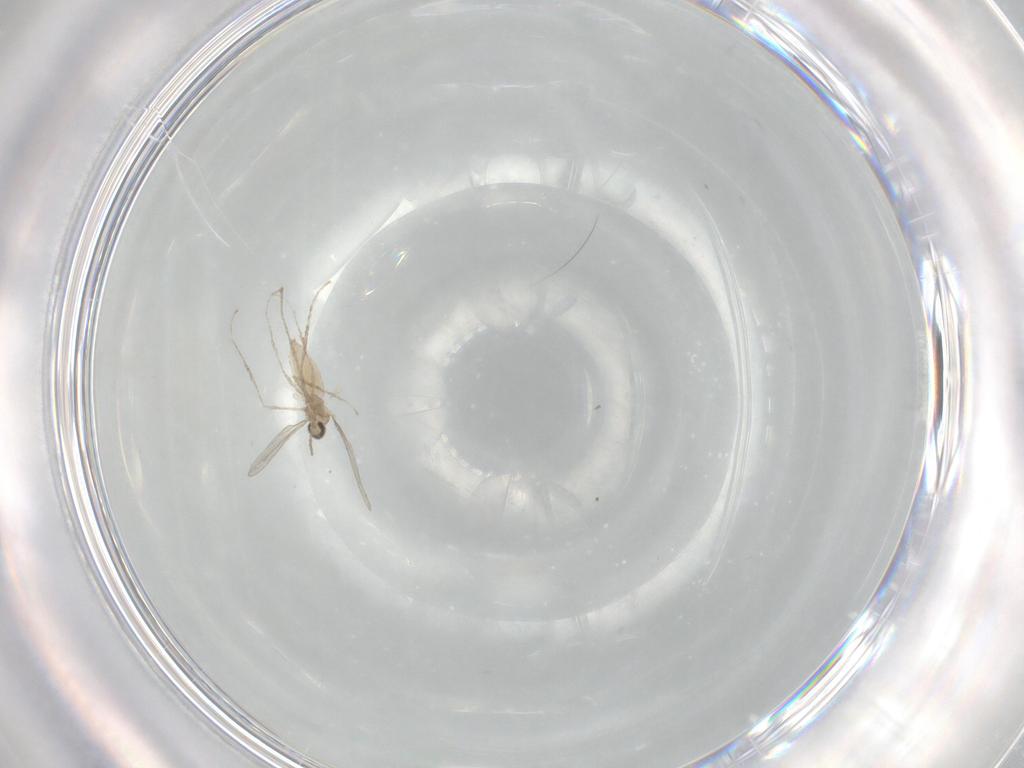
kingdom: Animalia
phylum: Arthropoda
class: Insecta
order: Diptera
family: Cecidomyiidae
